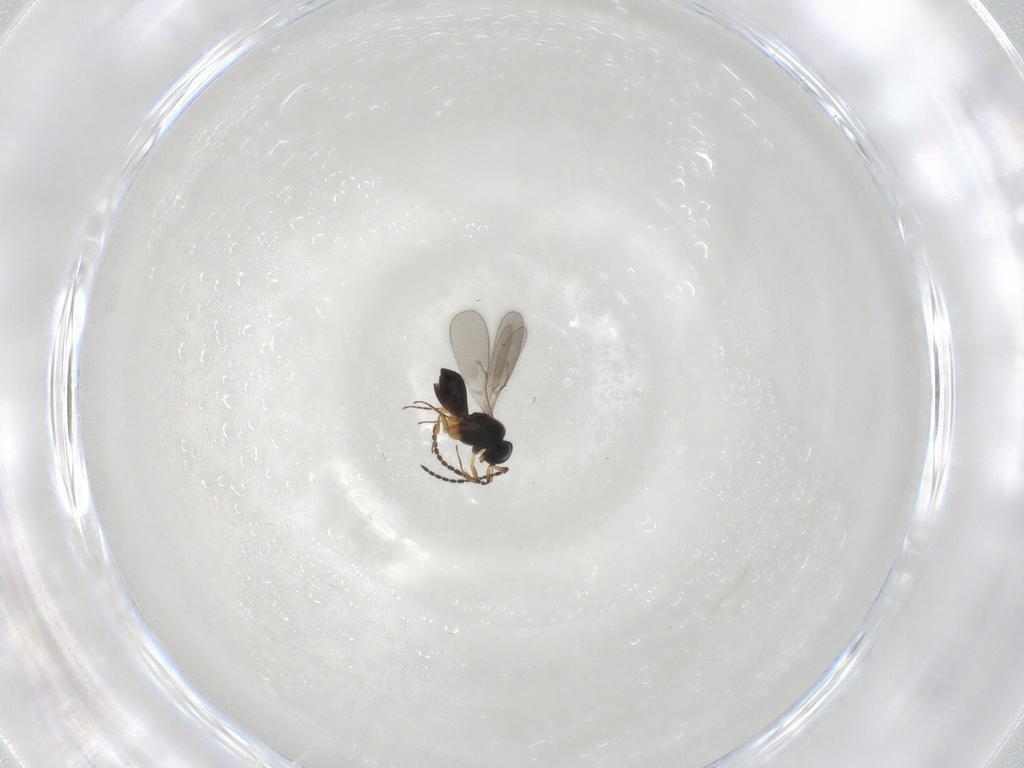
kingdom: Animalia
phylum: Arthropoda
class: Insecta
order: Hymenoptera
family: Scelionidae
